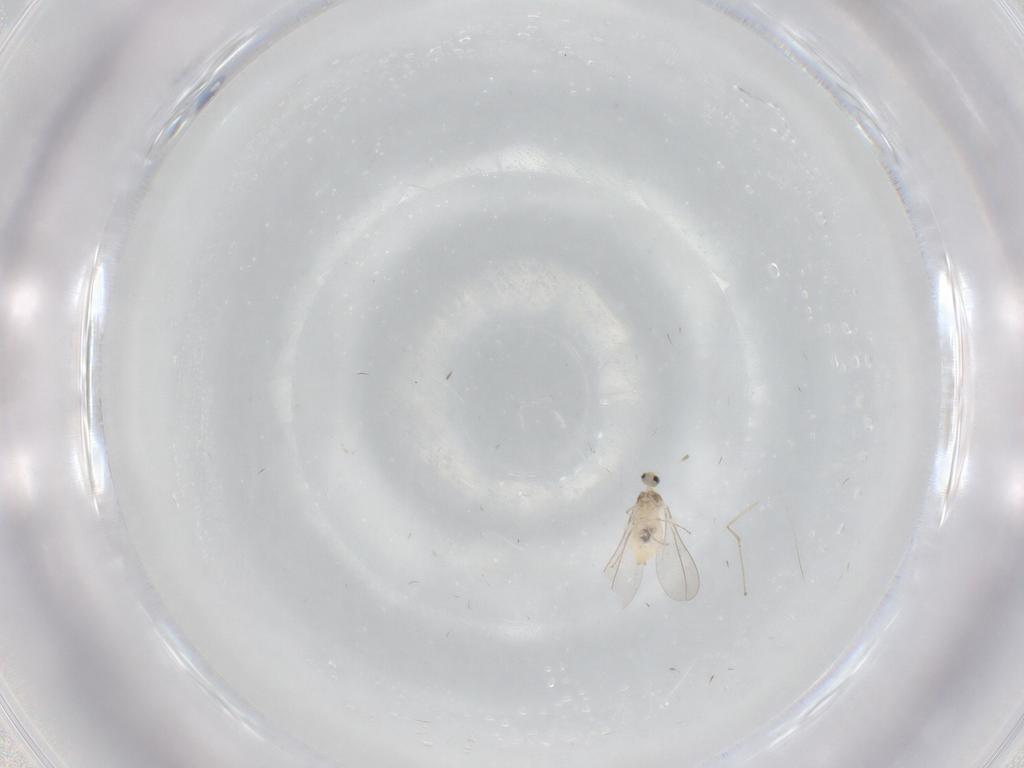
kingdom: Animalia
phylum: Arthropoda
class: Insecta
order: Diptera
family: Cecidomyiidae
